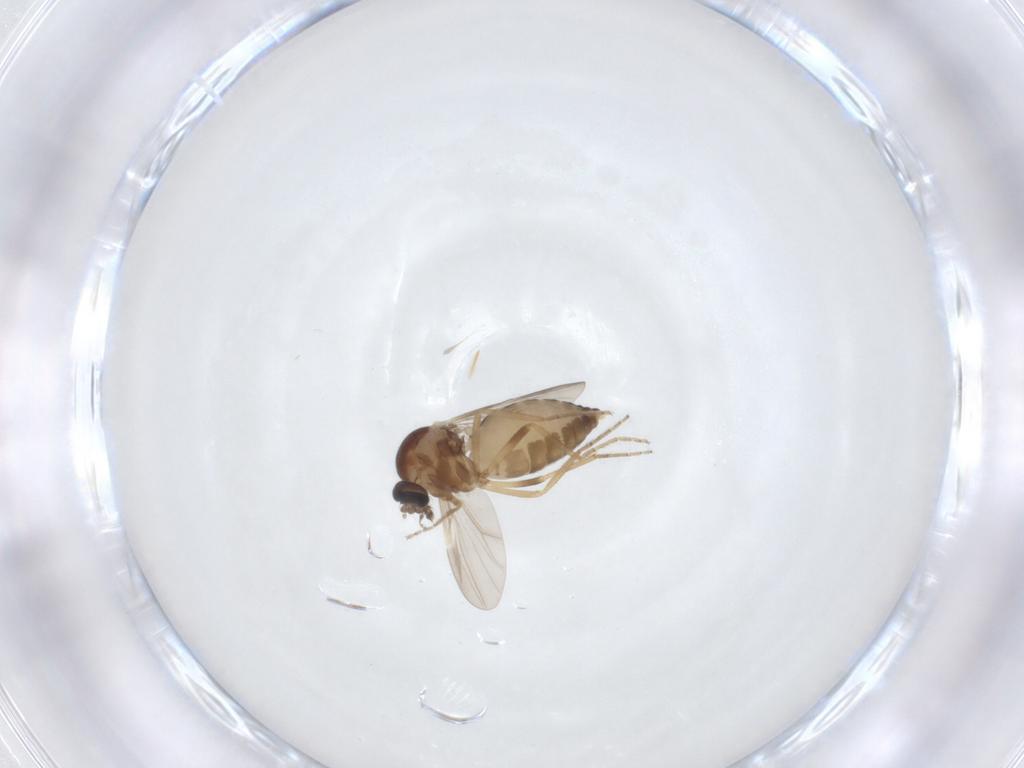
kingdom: Animalia
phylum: Arthropoda
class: Insecta
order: Diptera
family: Ceratopogonidae
